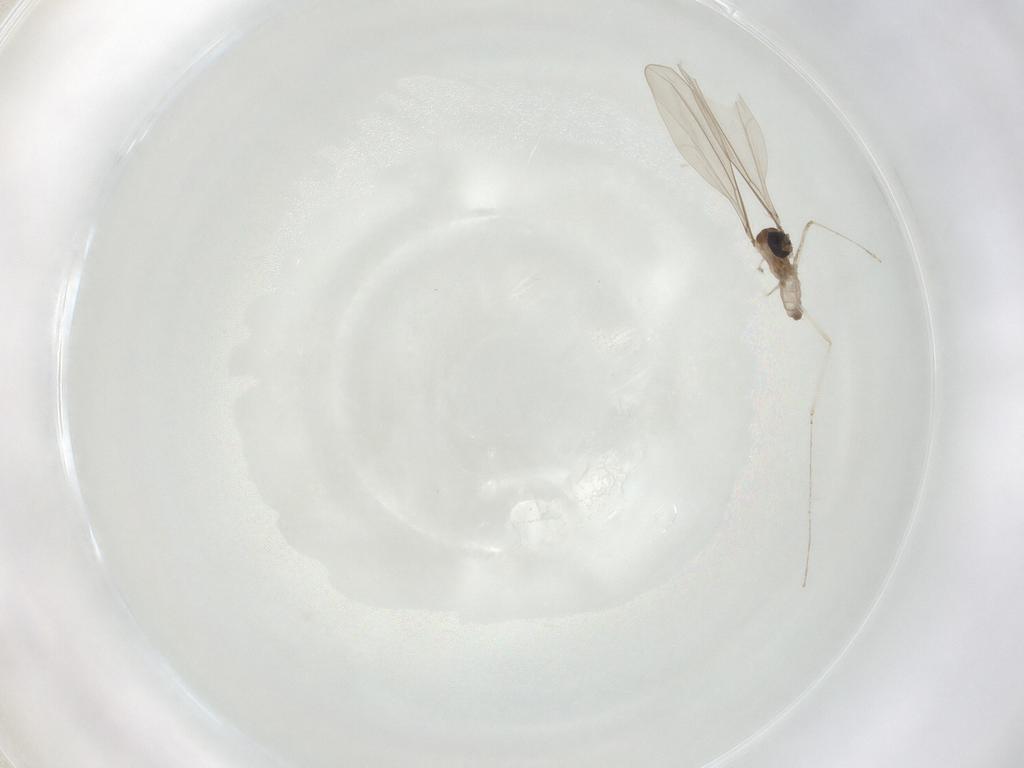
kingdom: Animalia
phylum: Arthropoda
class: Insecta
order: Diptera
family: Cecidomyiidae
